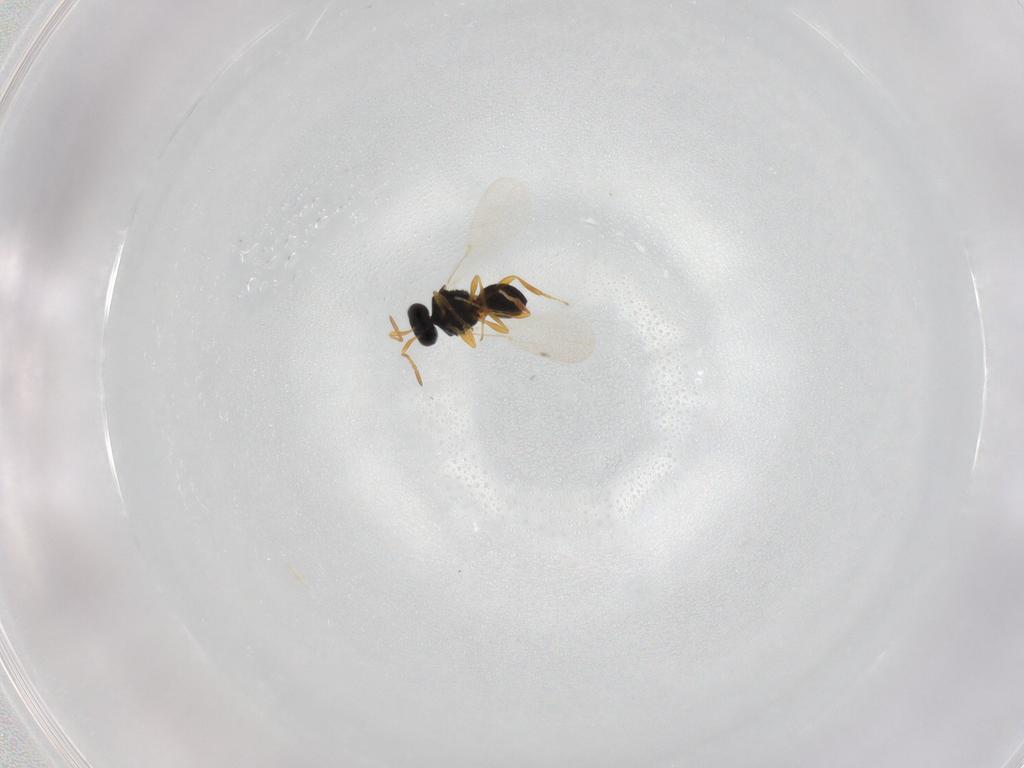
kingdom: Animalia
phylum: Arthropoda
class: Insecta
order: Hymenoptera
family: Platygastridae
